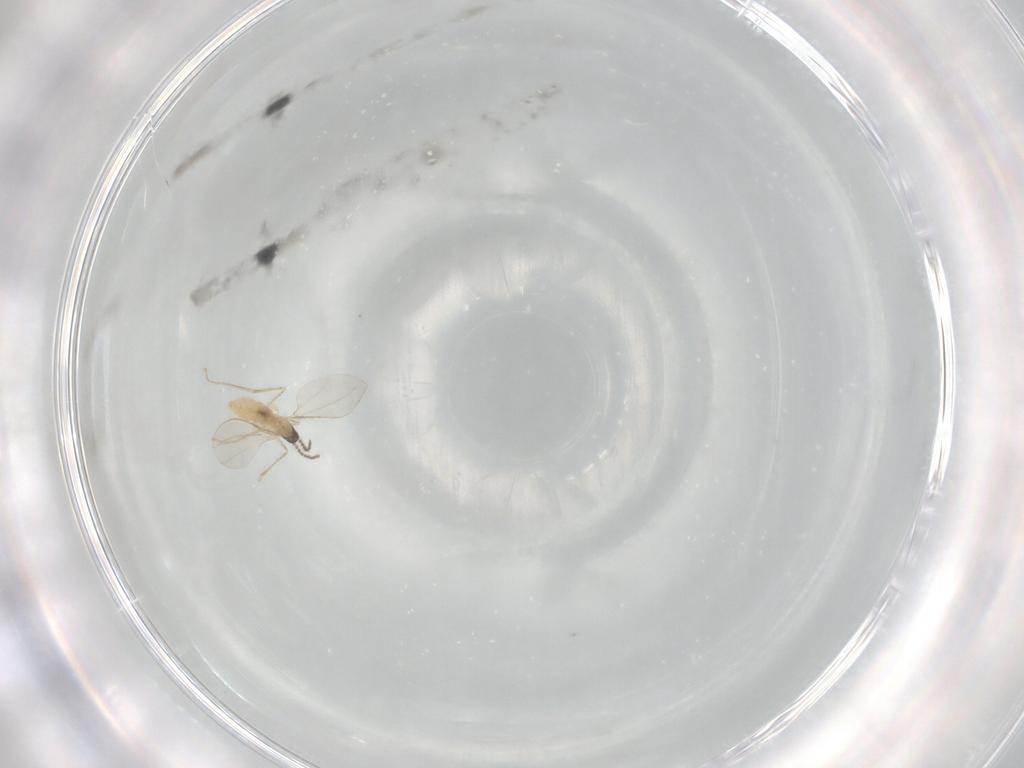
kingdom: Animalia
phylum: Arthropoda
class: Insecta
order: Diptera
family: Cecidomyiidae
